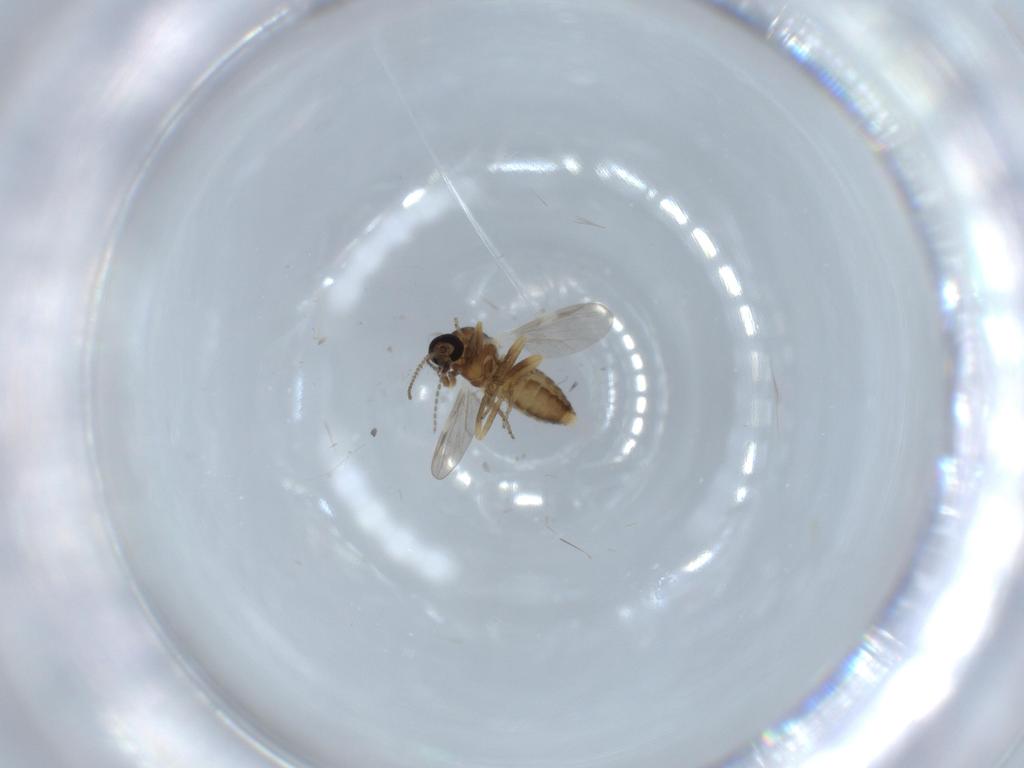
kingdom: Animalia
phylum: Arthropoda
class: Insecta
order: Diptera
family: Ceratopogonidae
